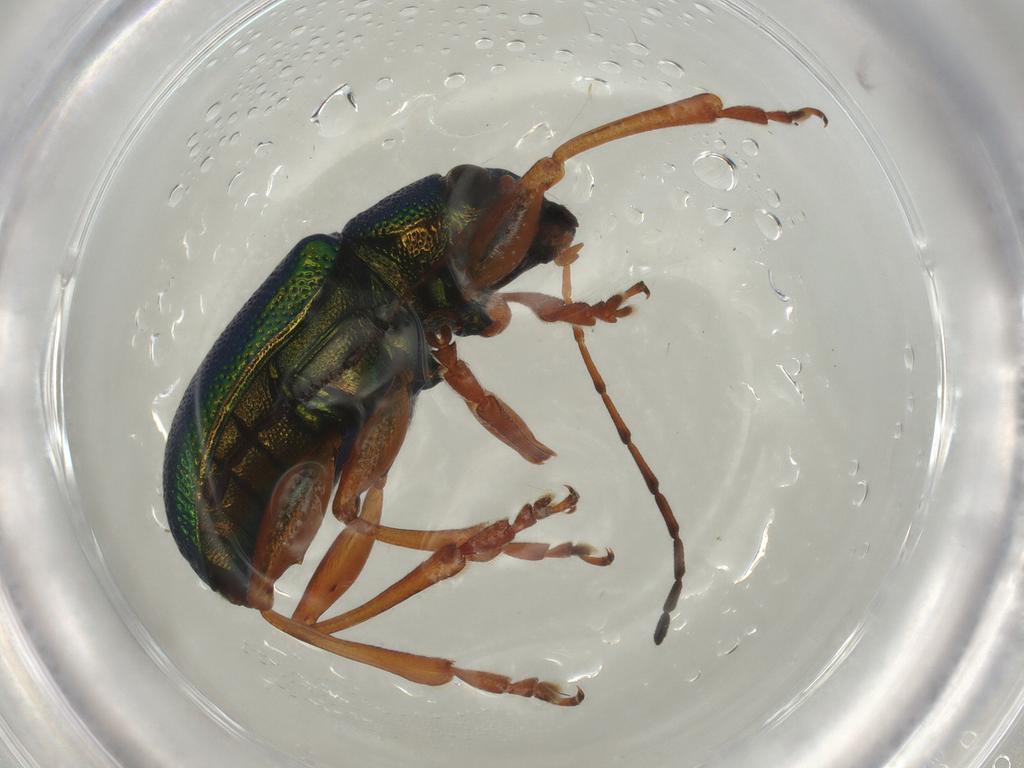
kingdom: Animalia
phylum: Arthropoda
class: Insecta
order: Coleoptera
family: Chrysomelidae
